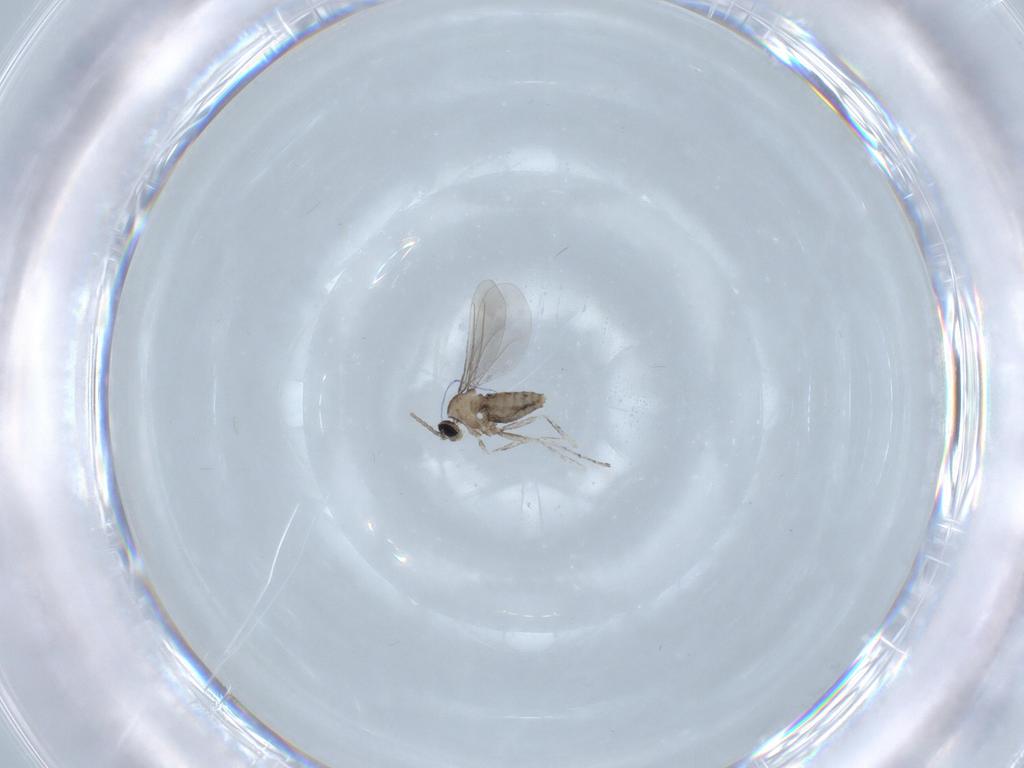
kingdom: Animalia
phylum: Arthropoda
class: Insecta
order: Diptera
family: Cecidomyiidae
